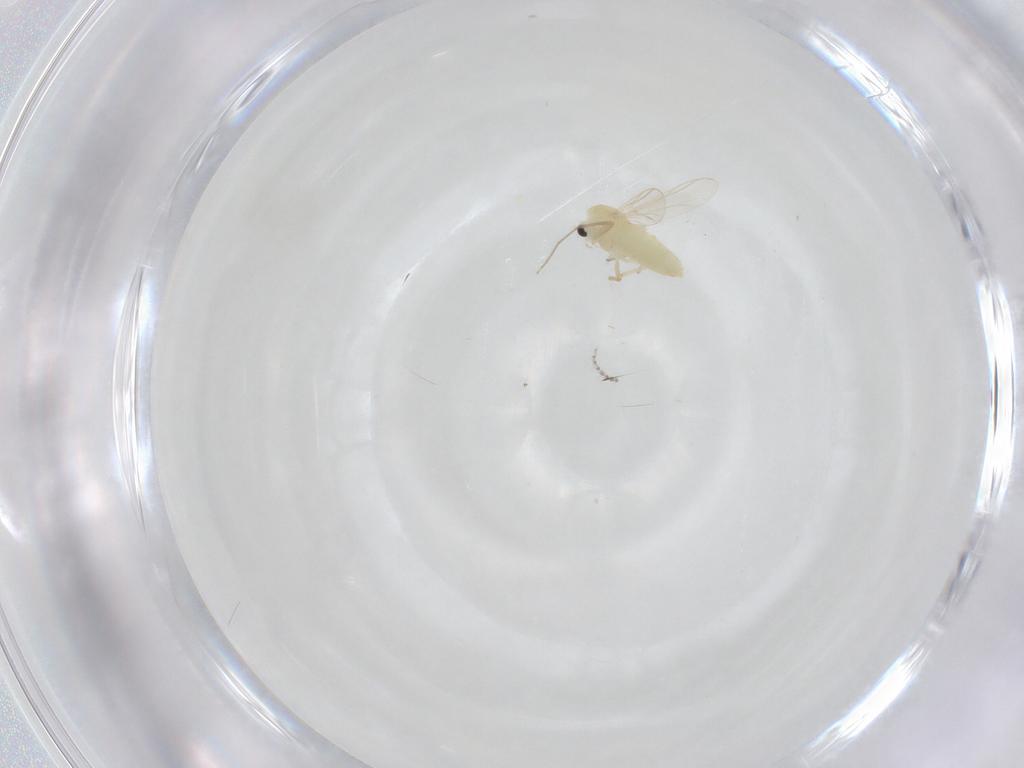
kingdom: Animalia
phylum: Arthropoda
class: Insecta
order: Diptera
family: Chironomidae
